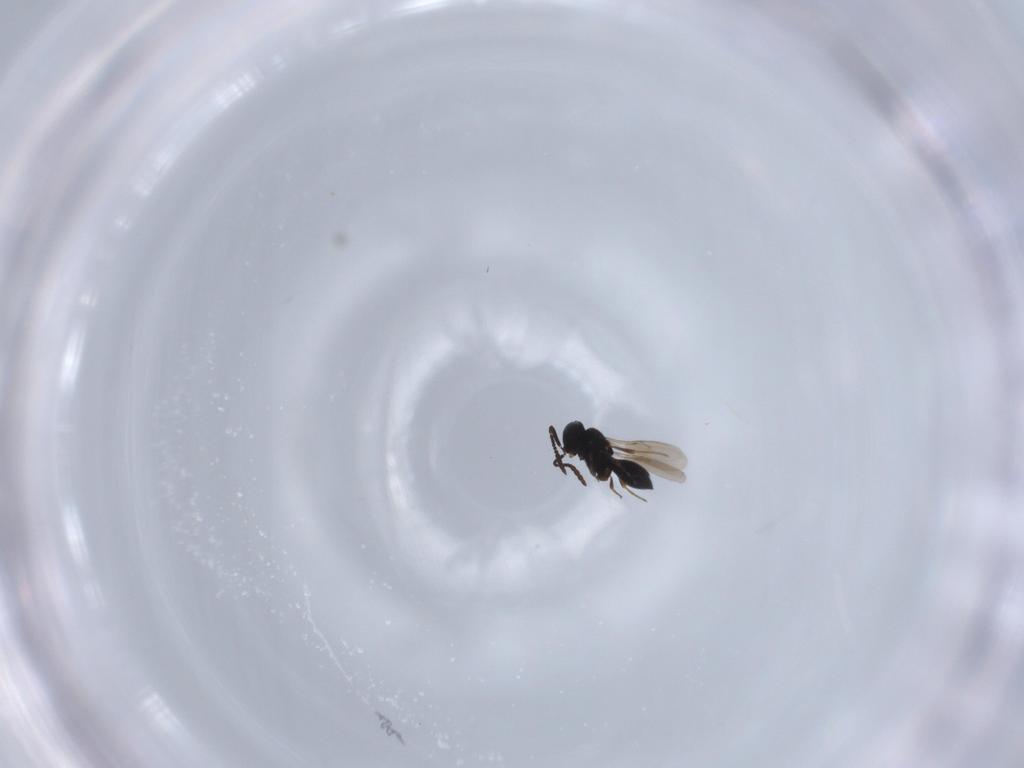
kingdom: Animalia
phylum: Arthropoda
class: Insecta
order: Hymenoptera
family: Scelionidae
